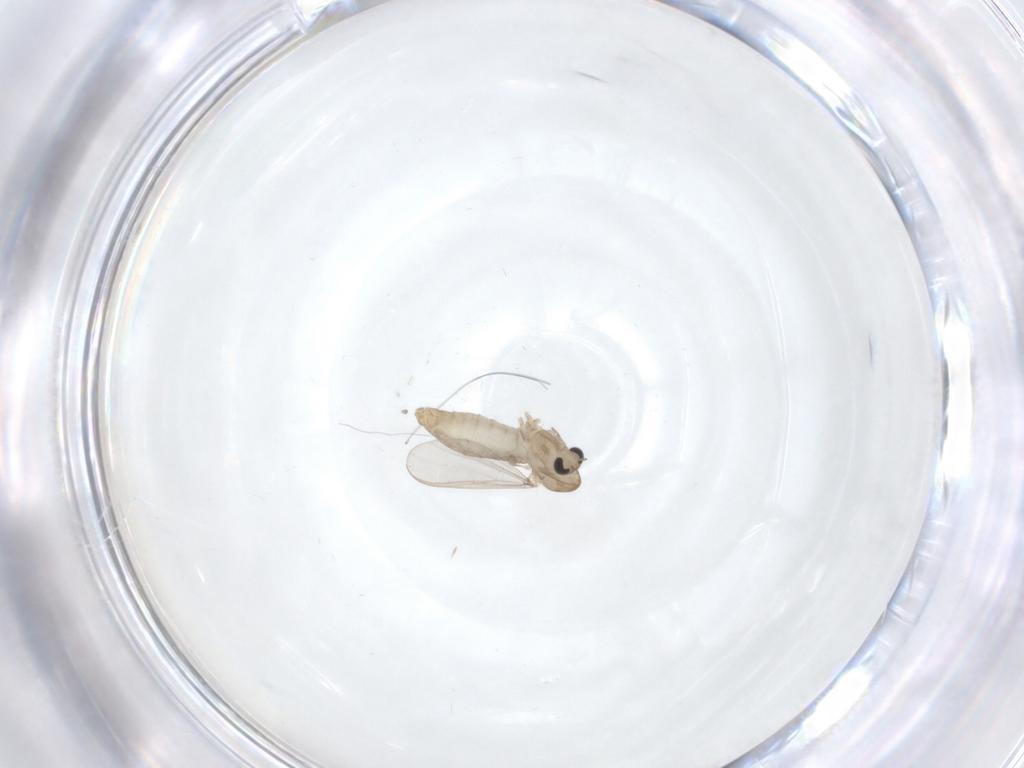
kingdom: Animalia
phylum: Arthropoda
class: Insecta
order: Diptera
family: Chironomidae
